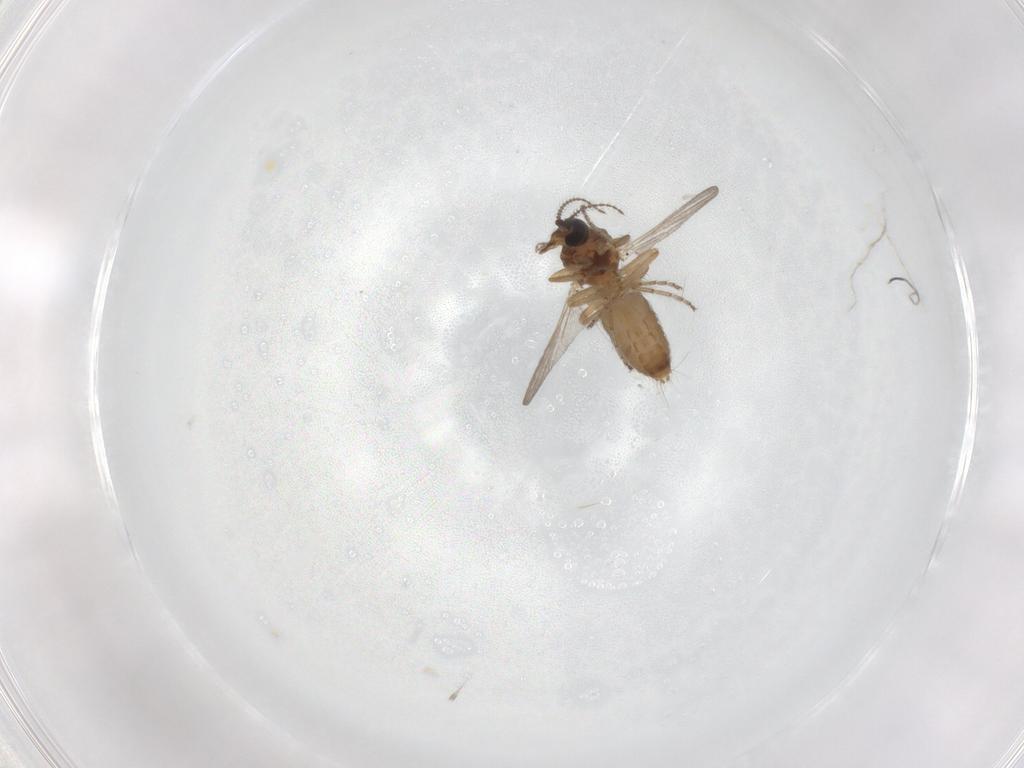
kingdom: Animalia
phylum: Arthropoda
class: Insecta
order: Diptera
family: Ceratopogonidae
